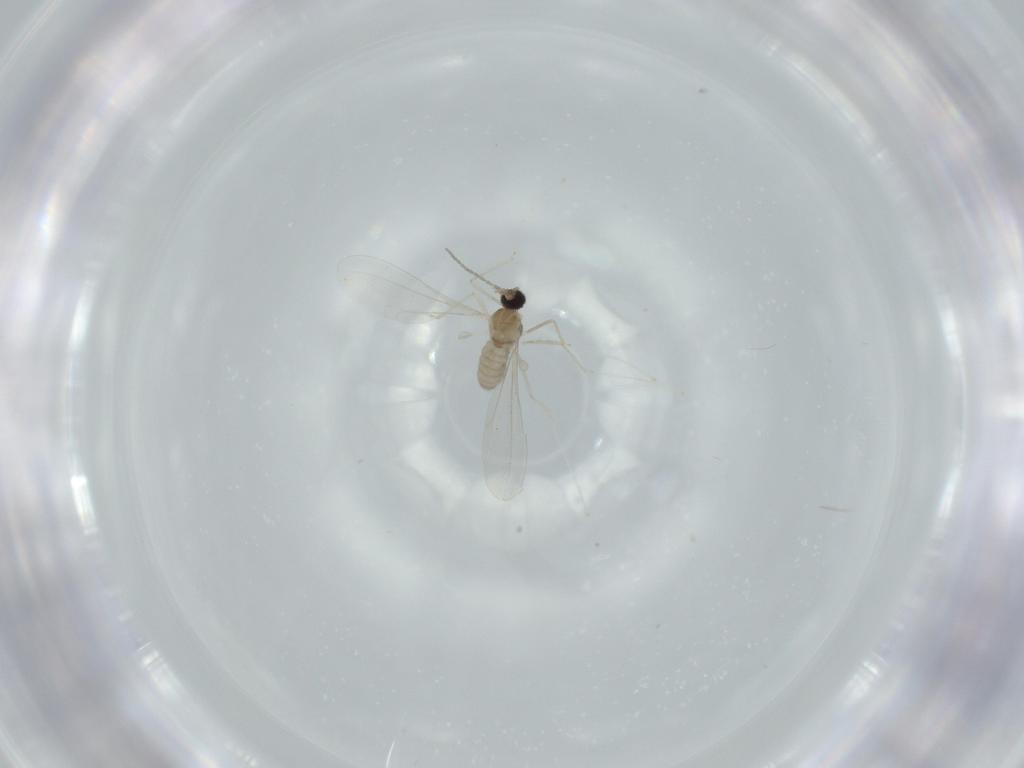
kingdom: Animalia
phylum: Arthropoda
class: Insecta
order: Diptera
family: Cecidomyiidae
